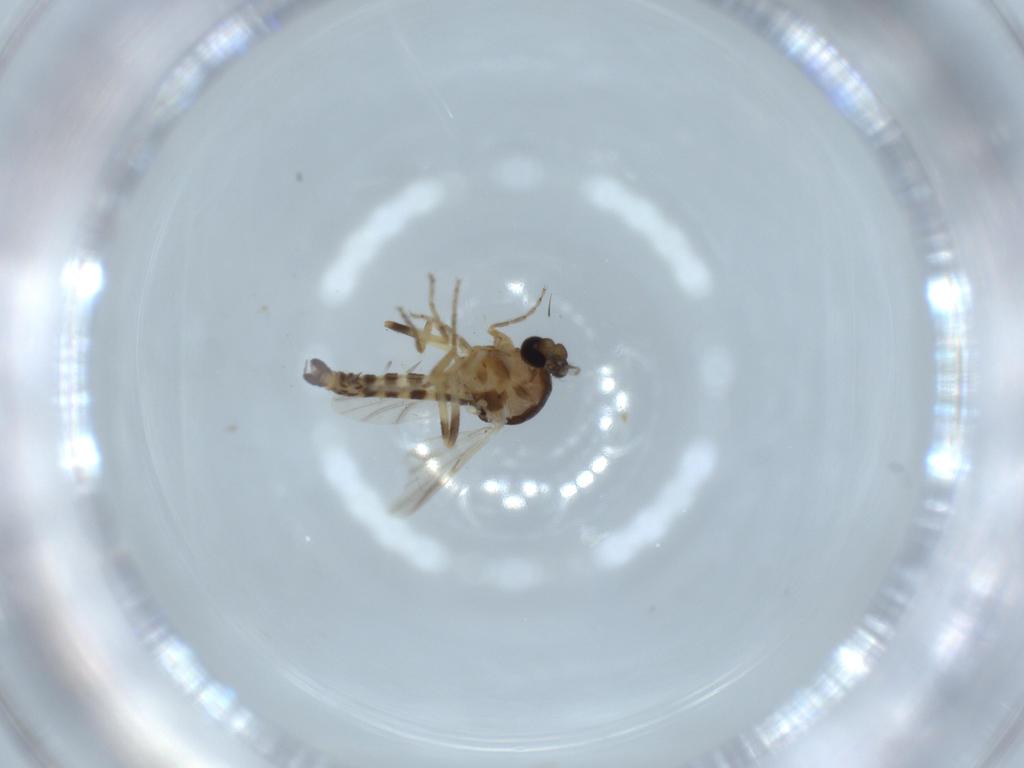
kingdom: Animalia
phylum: Arthropoda
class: Insecta
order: Diptera
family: Ceratopogonidae
